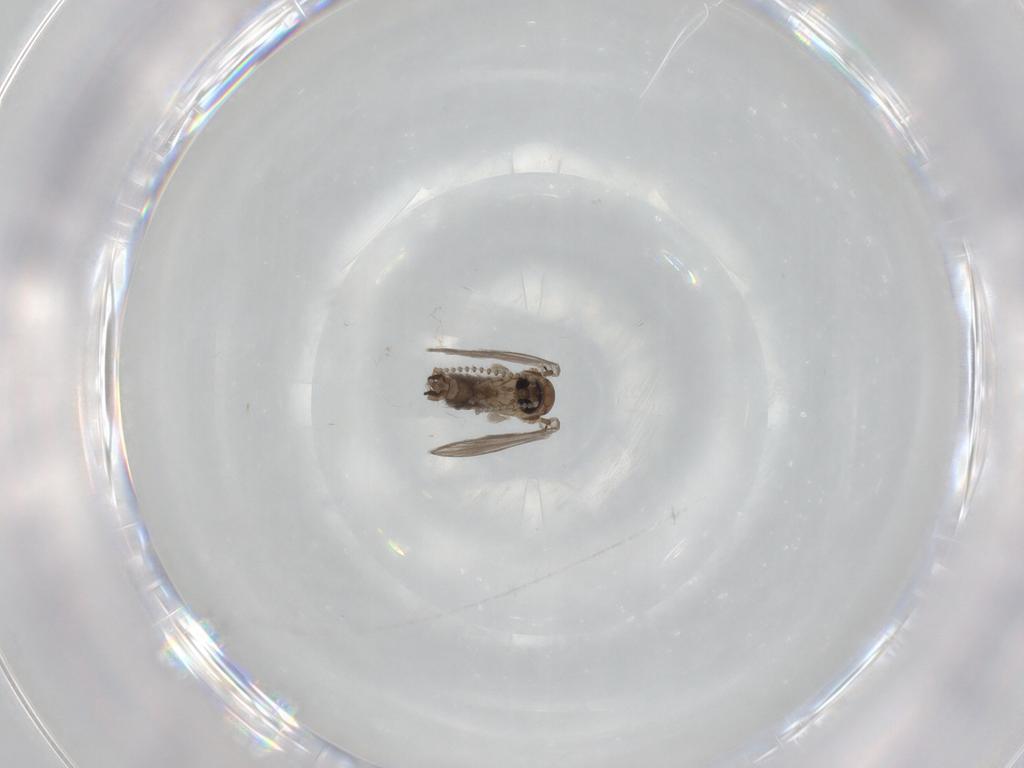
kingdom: Animalia
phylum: Arthropoda
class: Insecta
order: Diptera
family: Psychodidae
